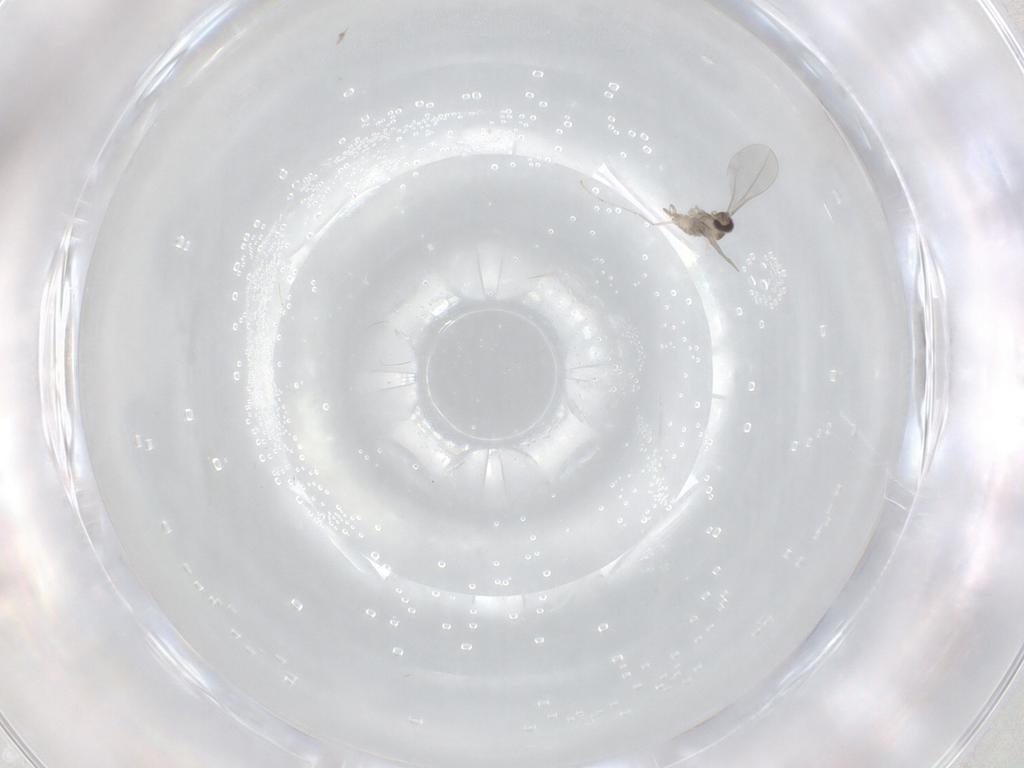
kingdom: Animalia
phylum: Arthropoda
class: Insecta
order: Diptera
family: Cecidomyiidae
